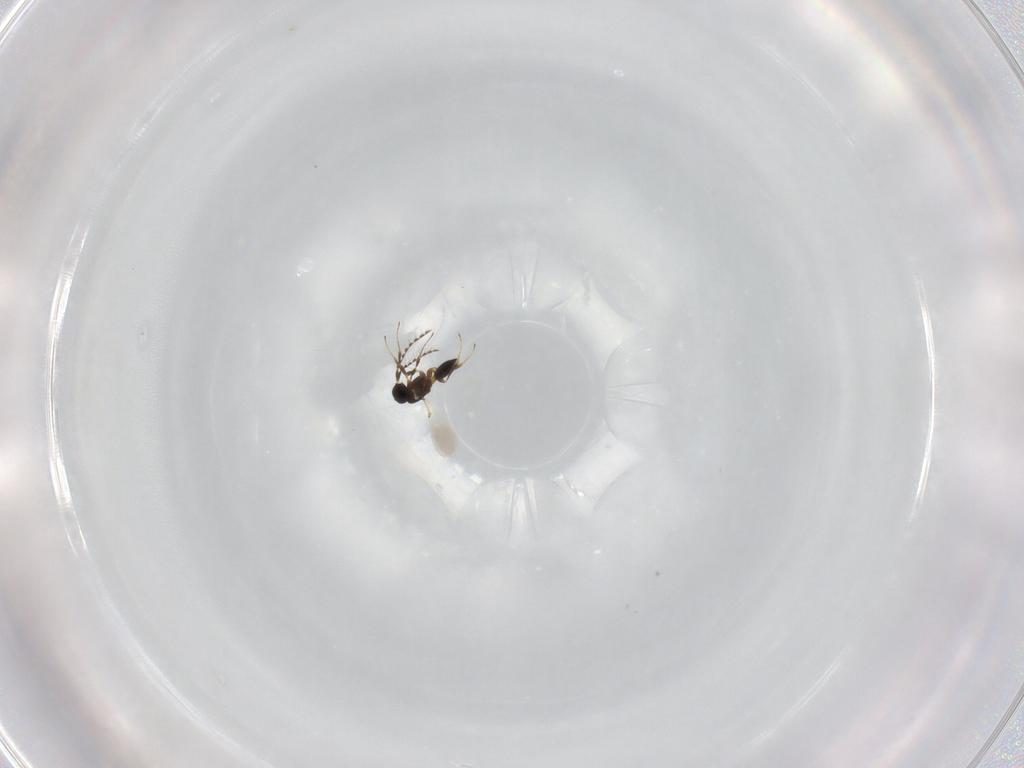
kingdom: Animalia
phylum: Arthropoda
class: Insecta
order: Hymenoptera
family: Platygastridae
